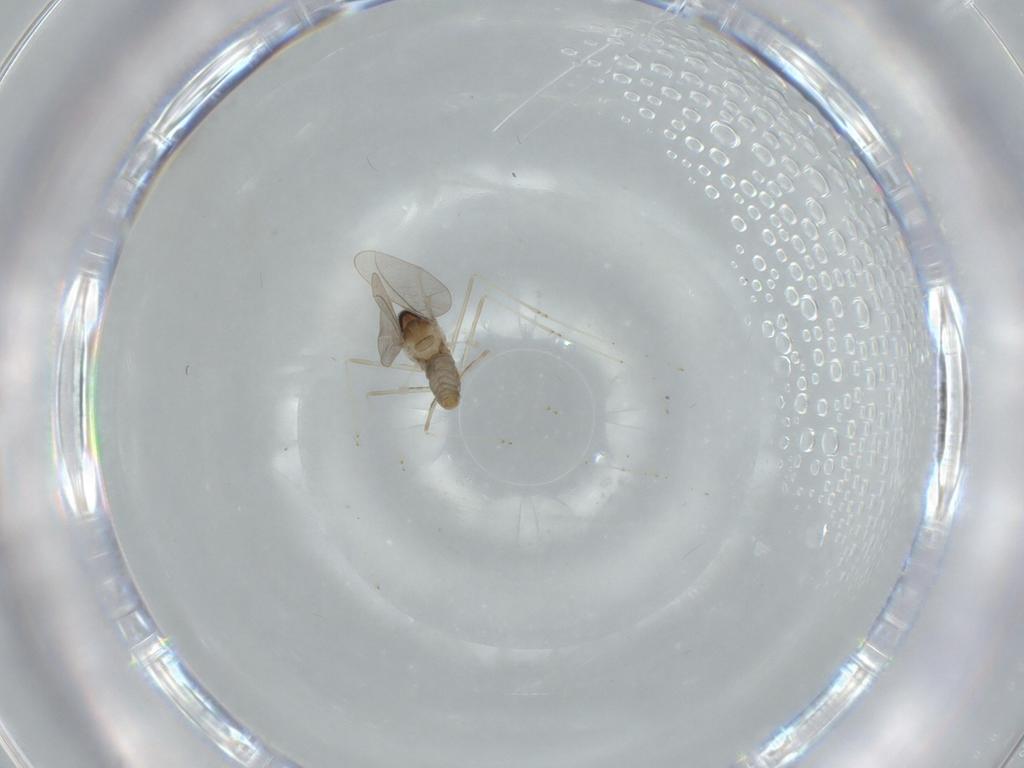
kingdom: Animalia
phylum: Arthropoda
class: Insecta
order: Diptera
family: Cecidomyiidae
